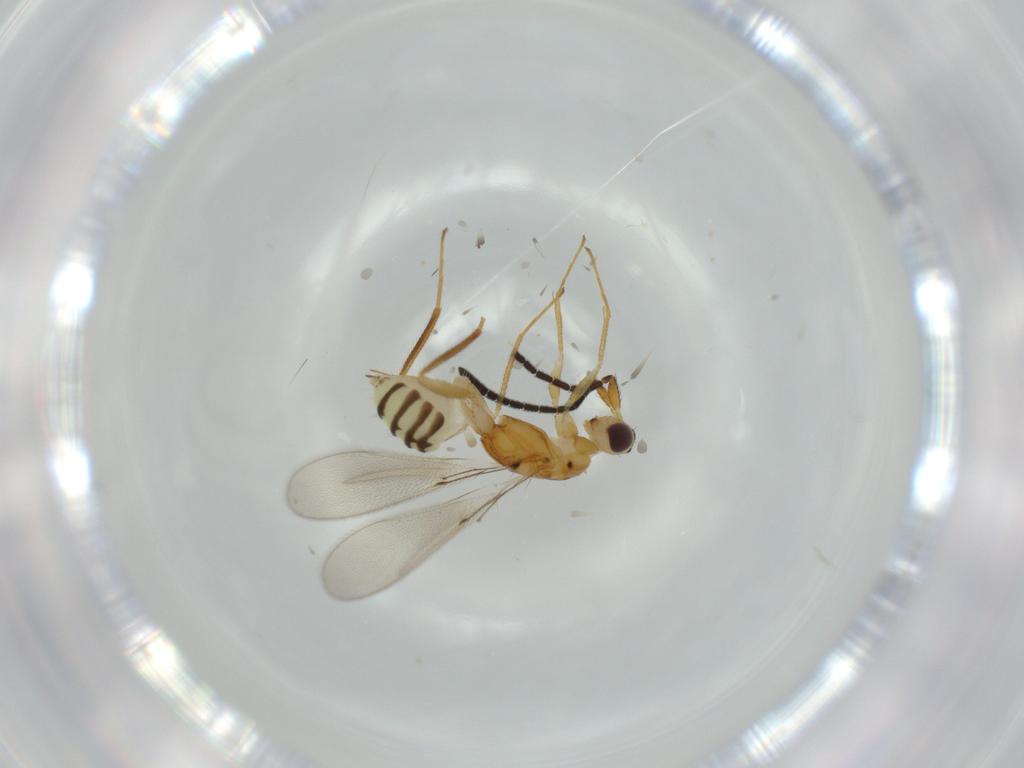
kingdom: Animalia
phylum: Arthropoda
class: Insecta
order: Hymenoptera
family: Mymaridae
